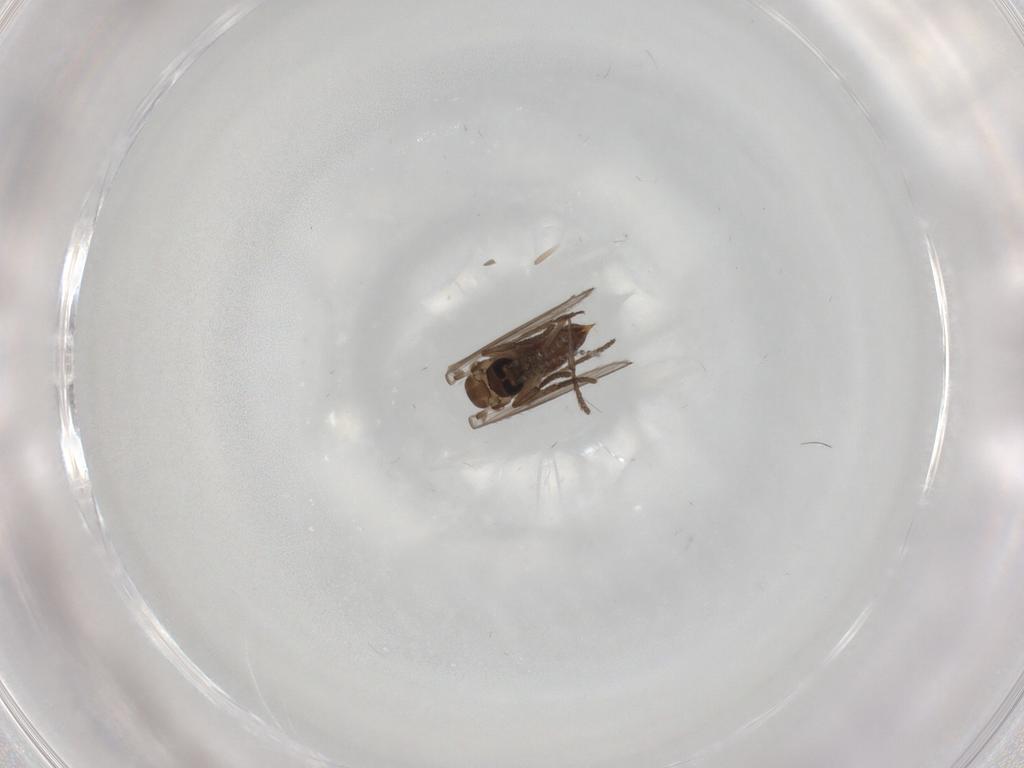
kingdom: Animalia
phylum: Arthropoda
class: Insecta
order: Diptera
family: Psychodidae
